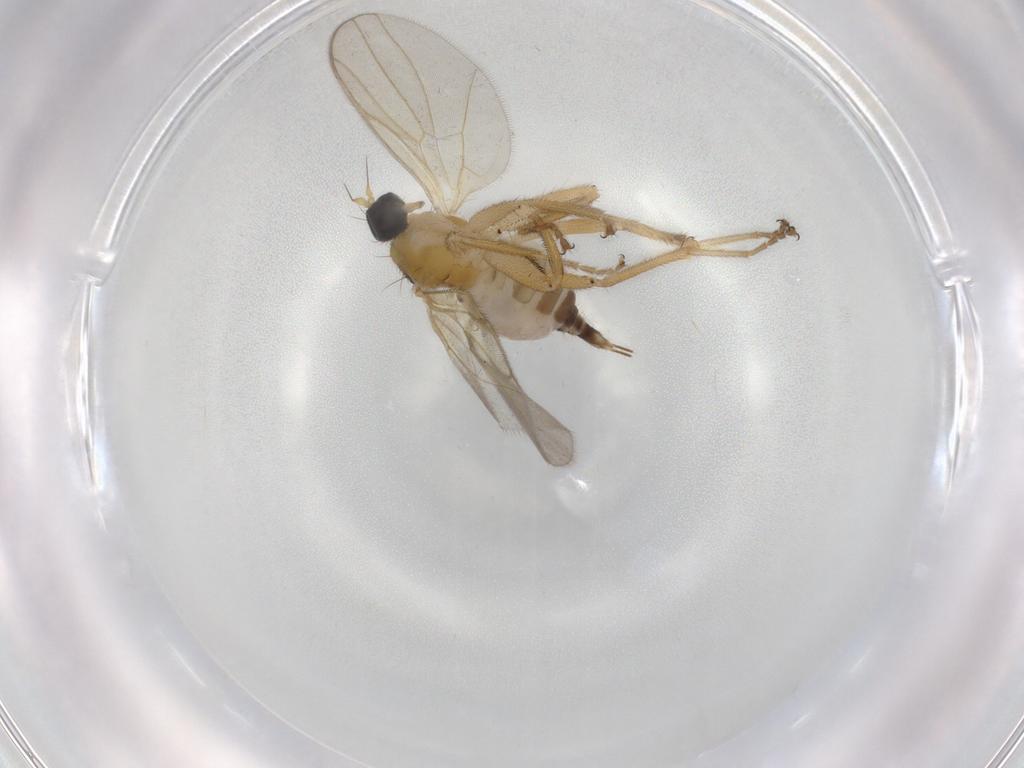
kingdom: Animalia
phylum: Arthropoda
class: Insecta
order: Diptera
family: Hybotidae
